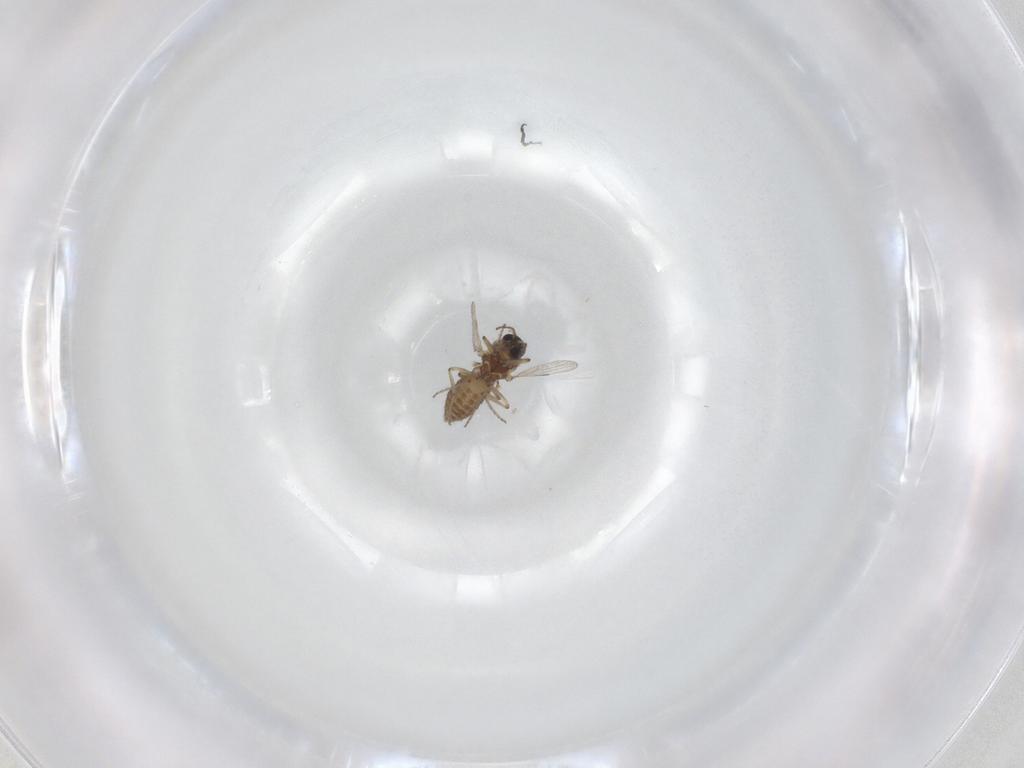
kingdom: Animalia
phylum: Arthropoda
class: Insecta
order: Diptera
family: Ceratopogonidae
